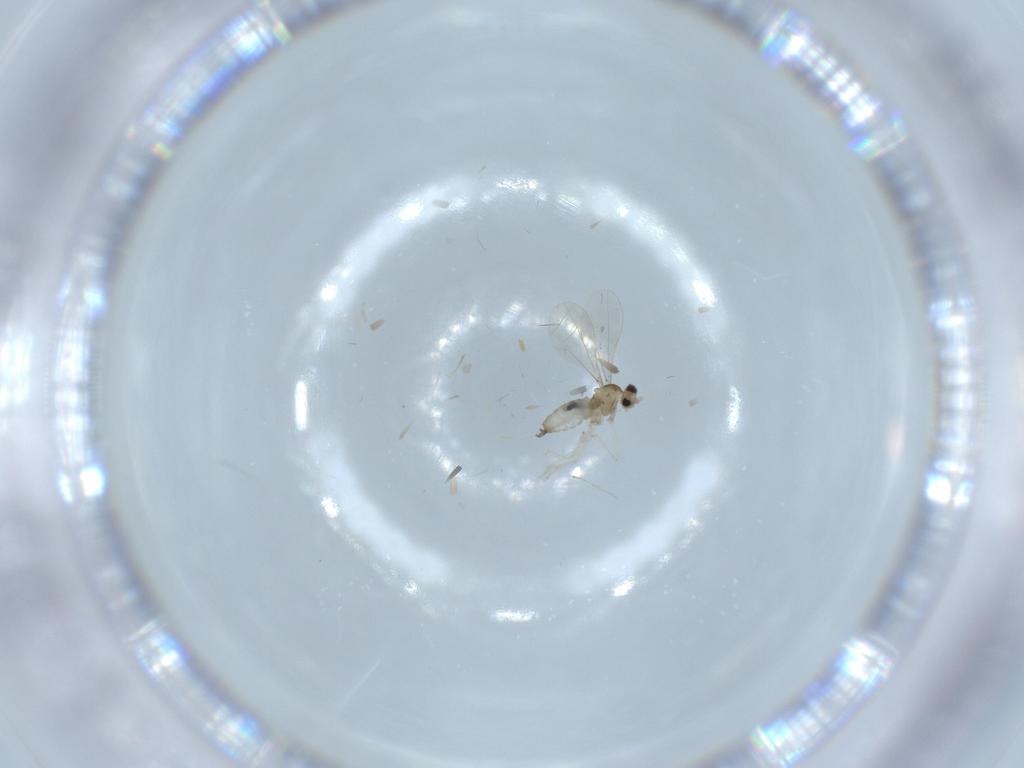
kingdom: Animalia
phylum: Arthropoda
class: Insecta
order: Diptera
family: Cecidomyiidae
